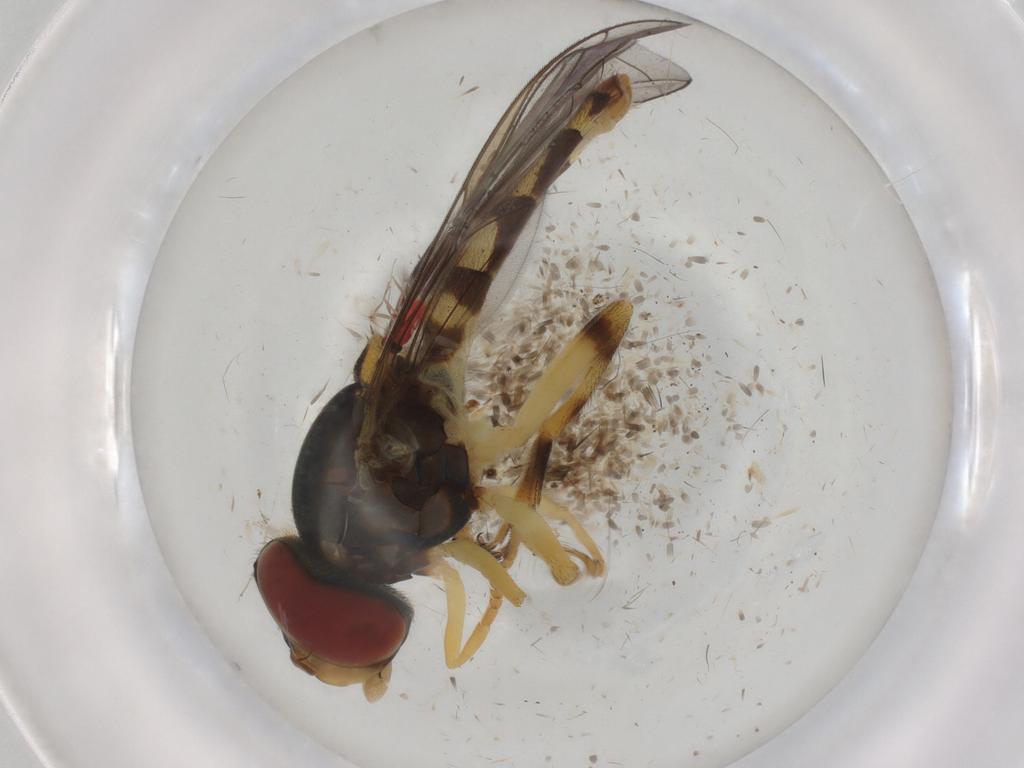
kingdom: Animalia
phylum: Arthropoda
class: Insecta
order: Diptera
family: Syrphidae
